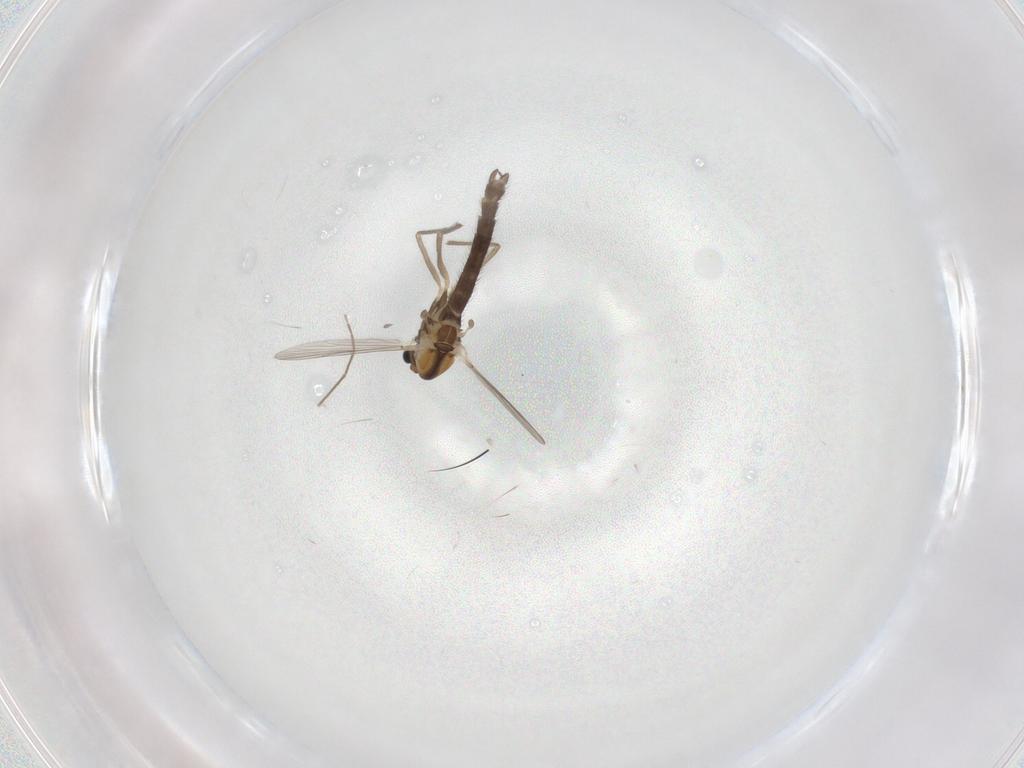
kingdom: Animalia
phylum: Arthropoda
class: Insecta
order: Diptera
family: Chironomidae
